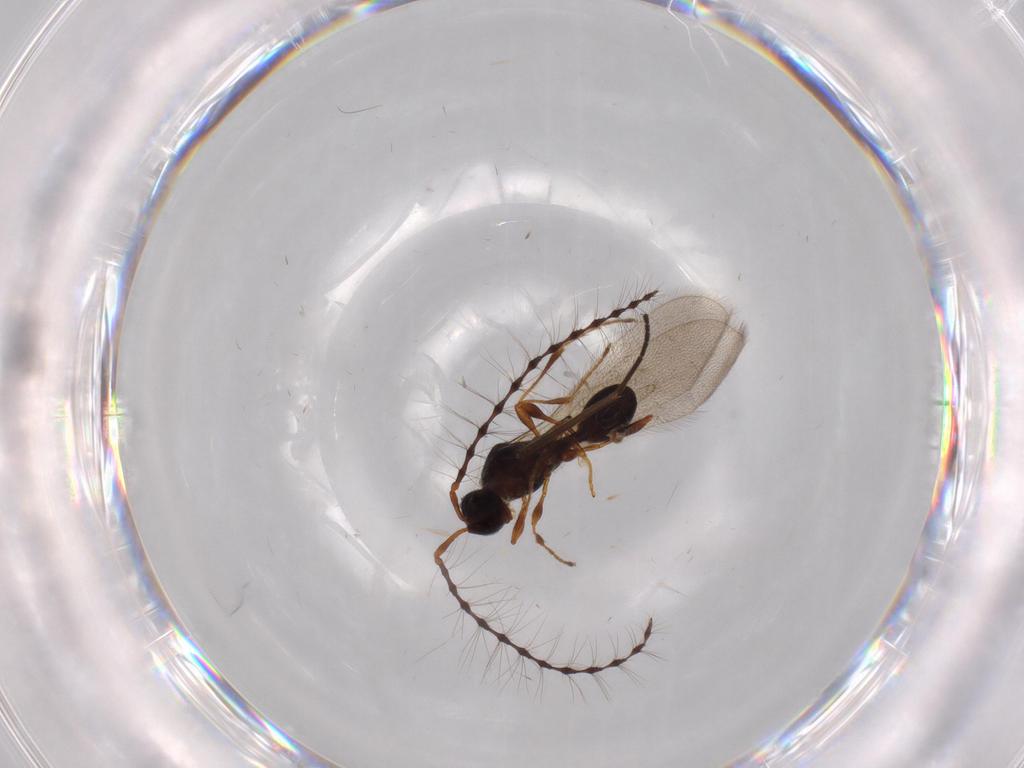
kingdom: Animalia
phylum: Arthropoda
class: Insecta
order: Hymenoptera
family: Diapriidae
